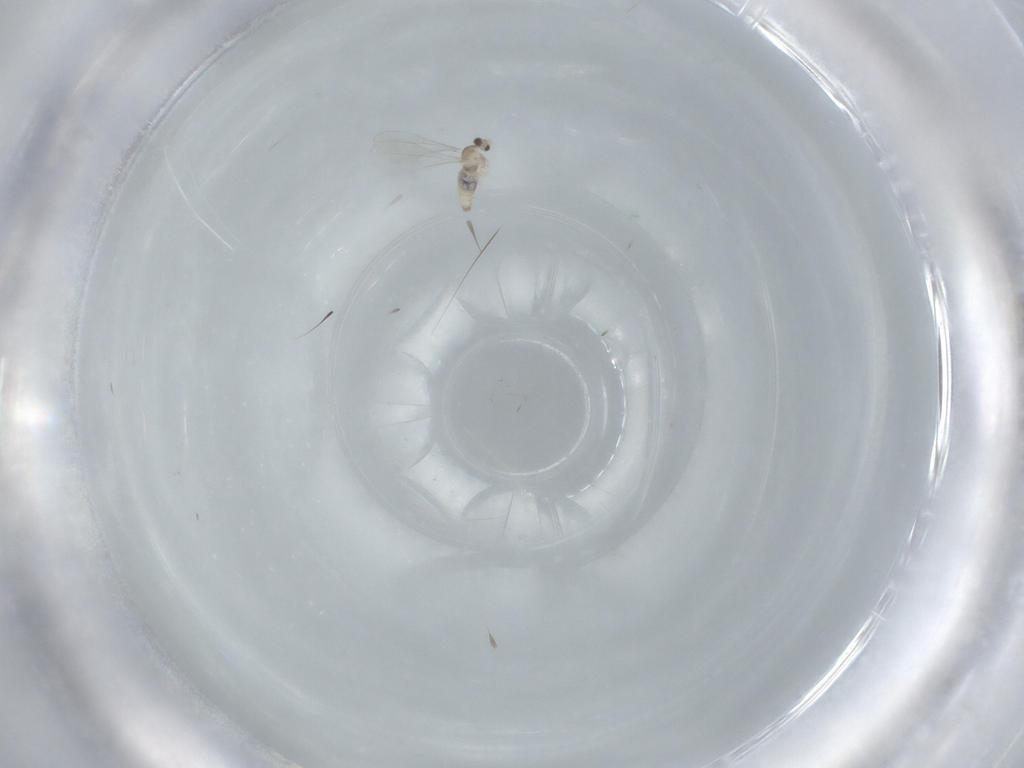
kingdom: Animalia
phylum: Arthropoda
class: Insecta
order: Diptera
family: Cecidomyiidae
